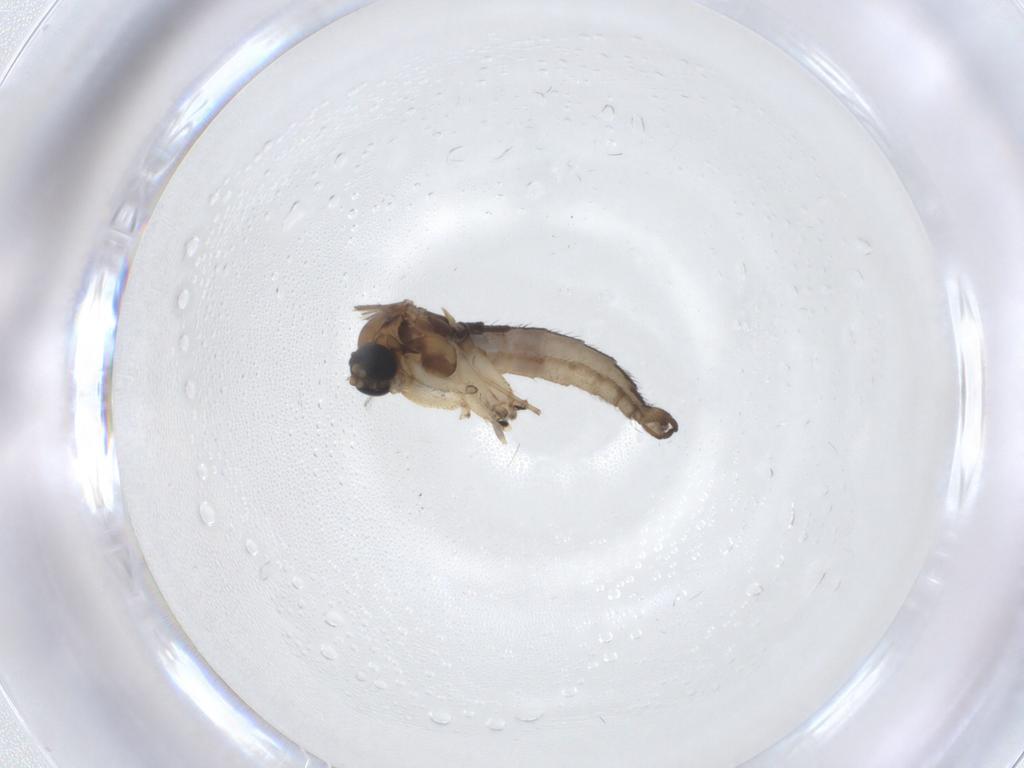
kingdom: Animalia
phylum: Arthropoda
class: Insecta
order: Diptera
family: Sciaridae
